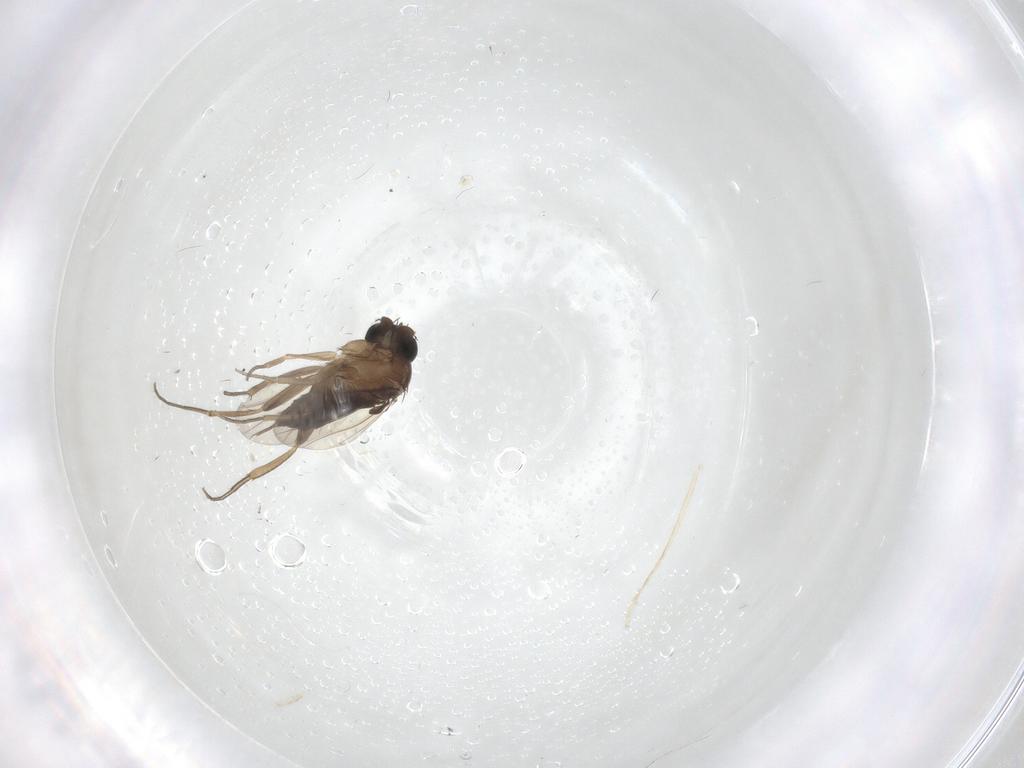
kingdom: Animalia
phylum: Arthropoda
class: Insecta
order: Diptera
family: Phoridae
